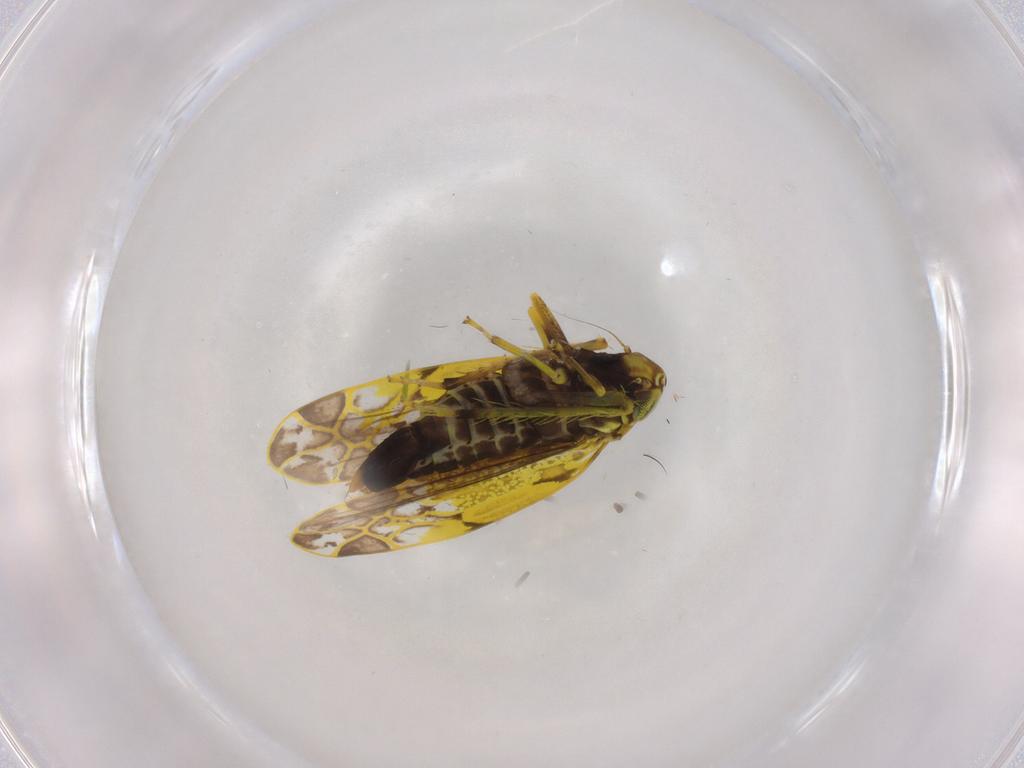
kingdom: Animalia
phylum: Arthropoda
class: Insecta
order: Hemiptera
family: Cicadellidae
